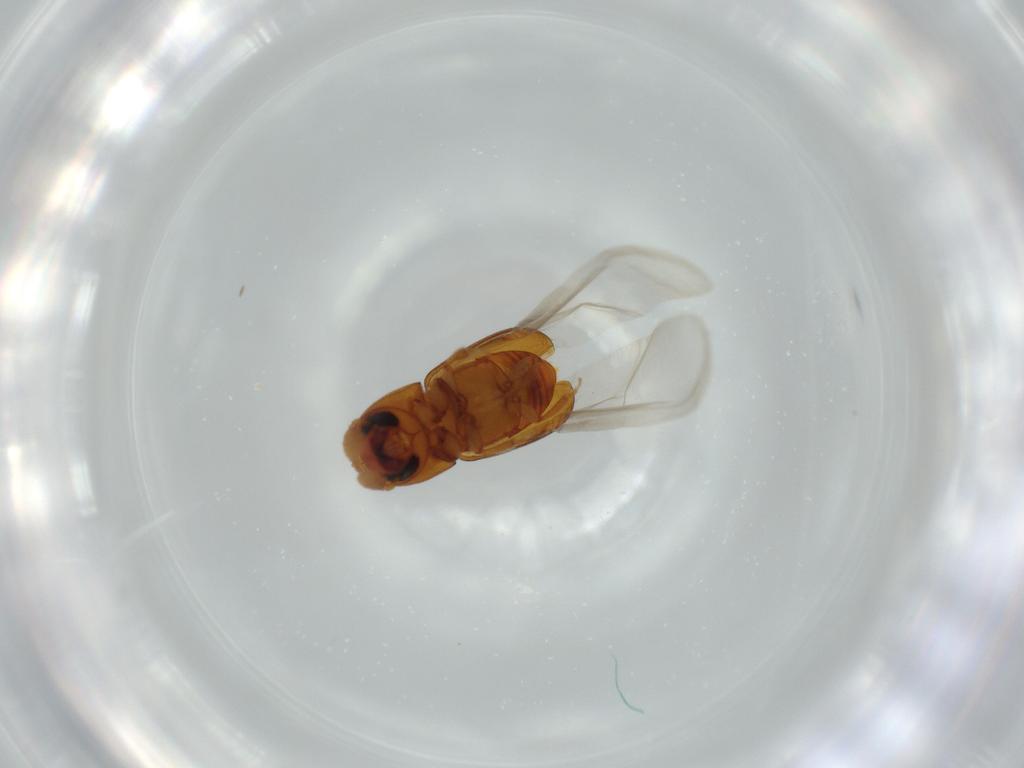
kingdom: Animalia
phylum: Arthropoda
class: Insecta
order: Coleoptera
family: Curculionidae
